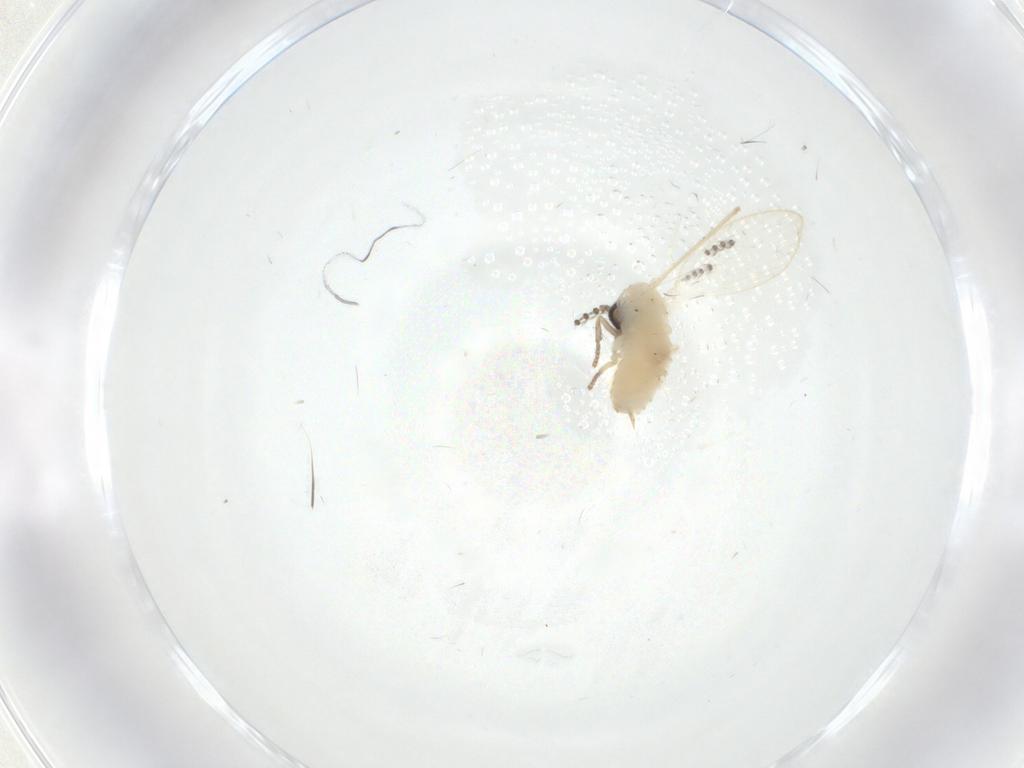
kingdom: Animalia
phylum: Arthropoda
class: Insecta
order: Diptera
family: Psychodidae
